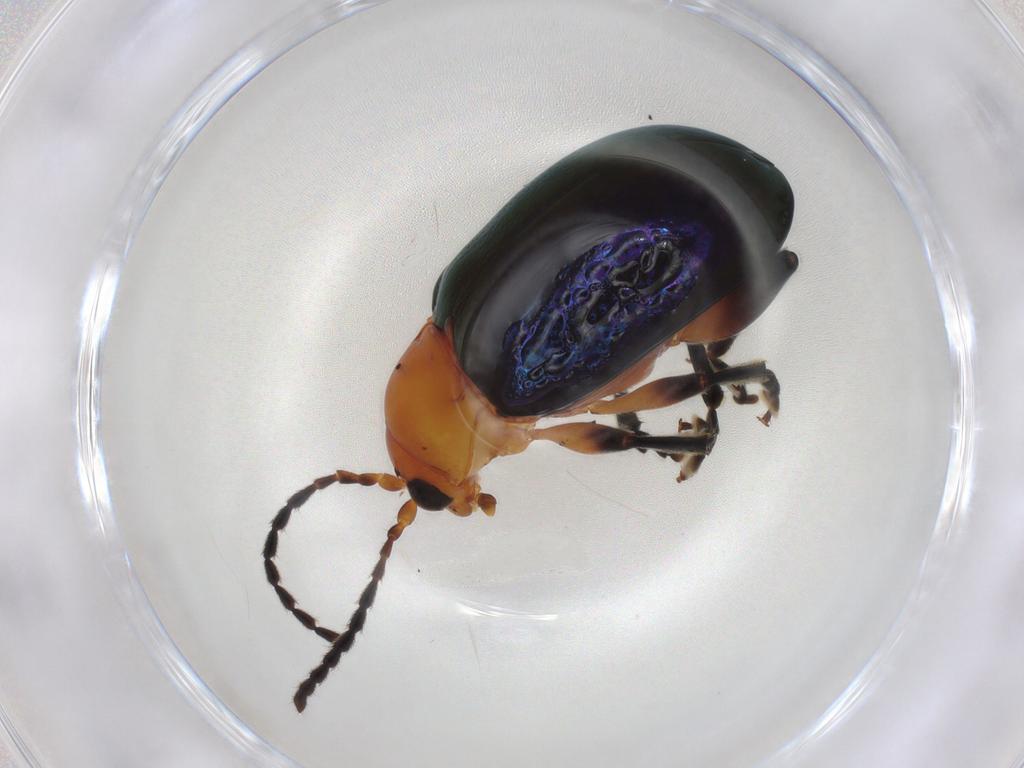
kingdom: Animalia
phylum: Arthropoda
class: Insecta
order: Coleoptera
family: Chrysomelidae
